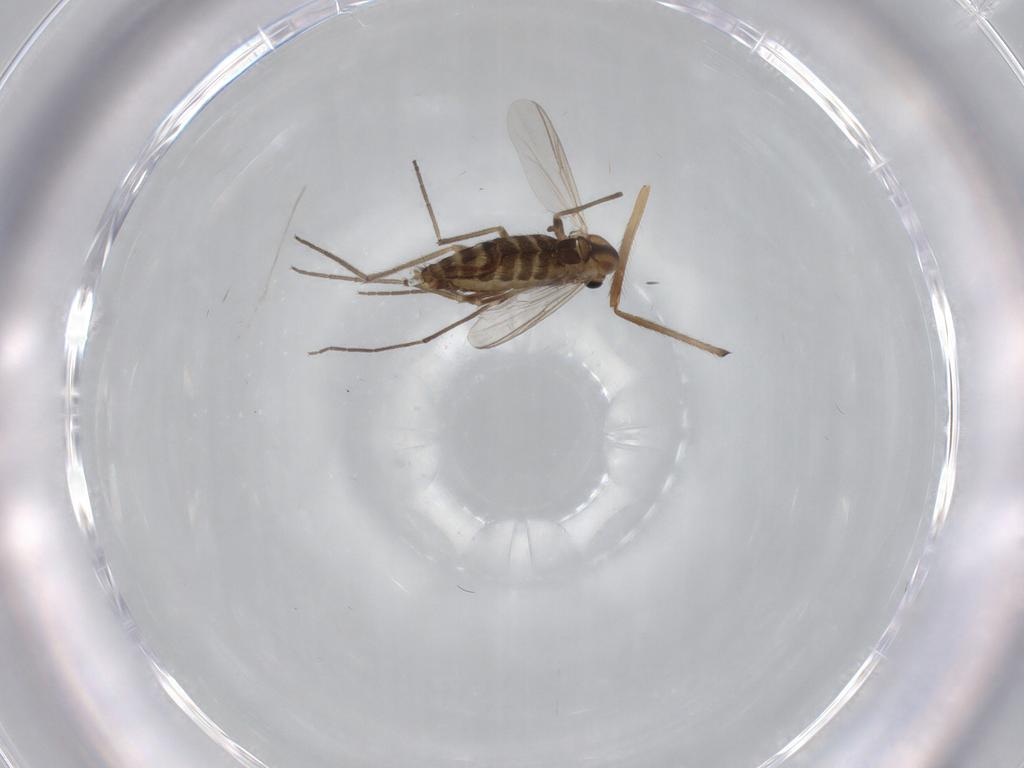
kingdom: Animalia
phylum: Arthropoda
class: Insecta
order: Diptera
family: Chironomidae
